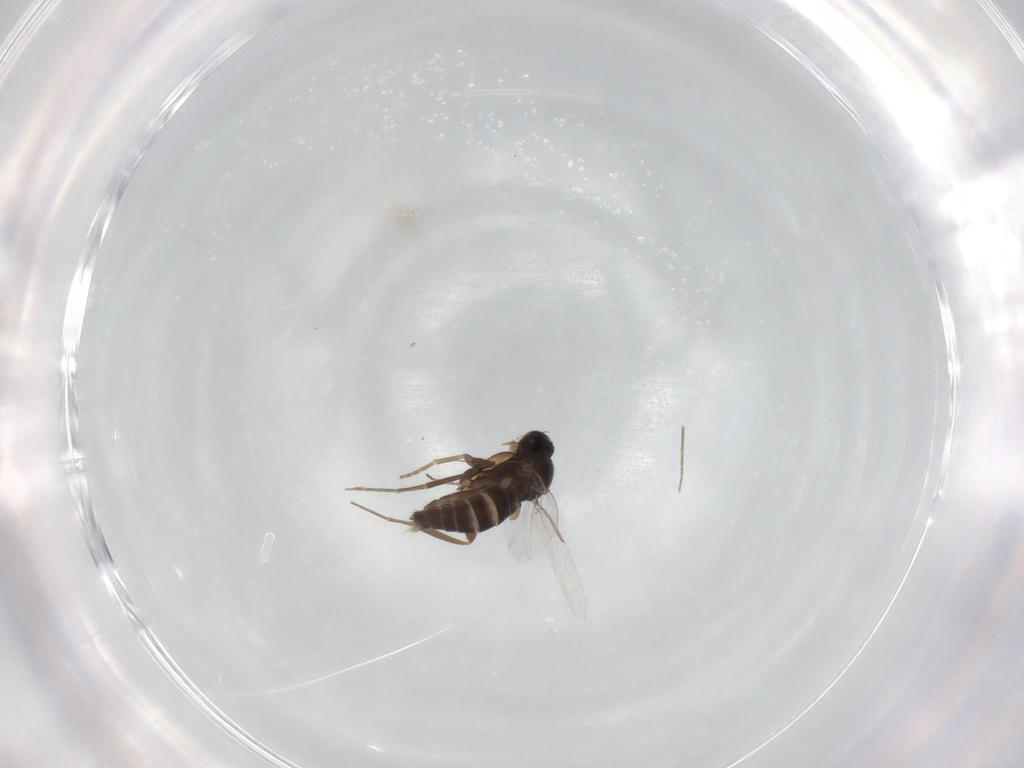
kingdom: Animalia
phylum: Arthropoda
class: Insecta
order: Diptera
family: Phoridae
